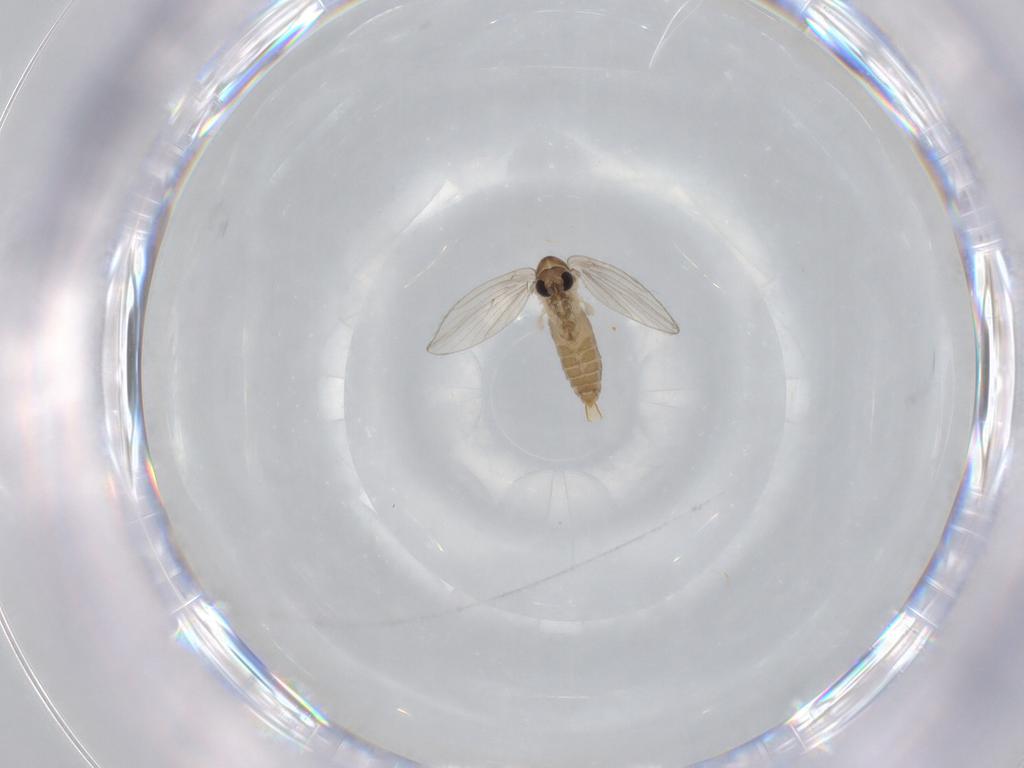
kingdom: Animalia
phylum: Arthropoda
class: Insecta
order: Diptera
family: Psychodidae
